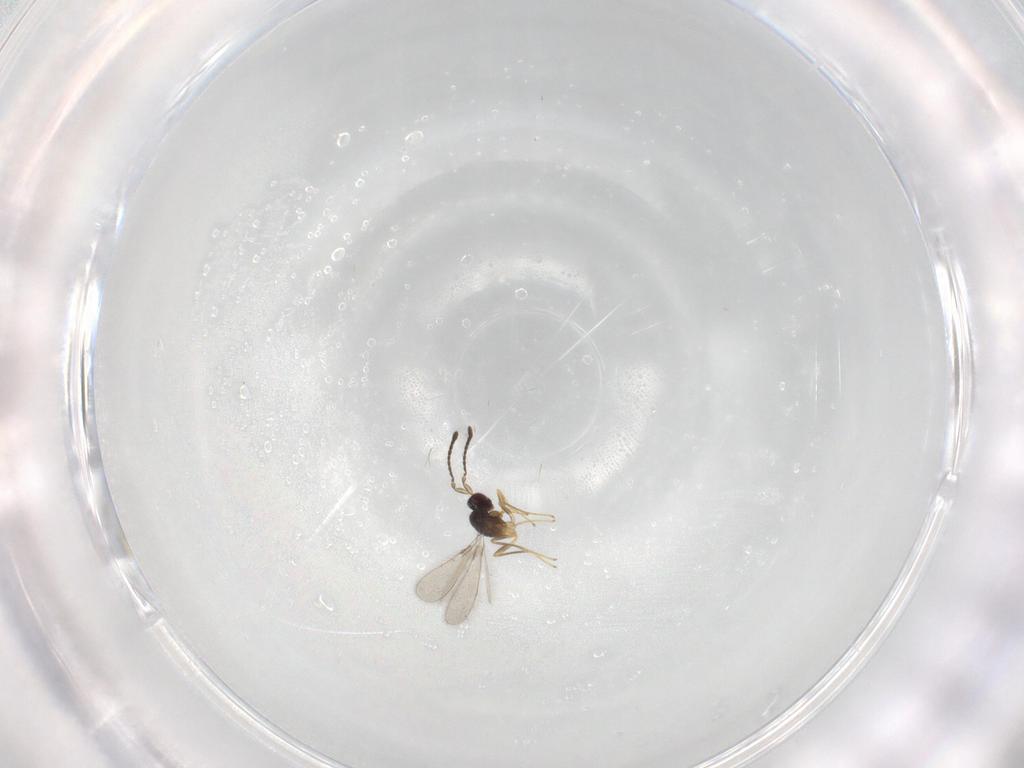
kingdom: Animalia
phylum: Arthropoda
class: Insecta
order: Hymenoptera
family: Mymaridae
